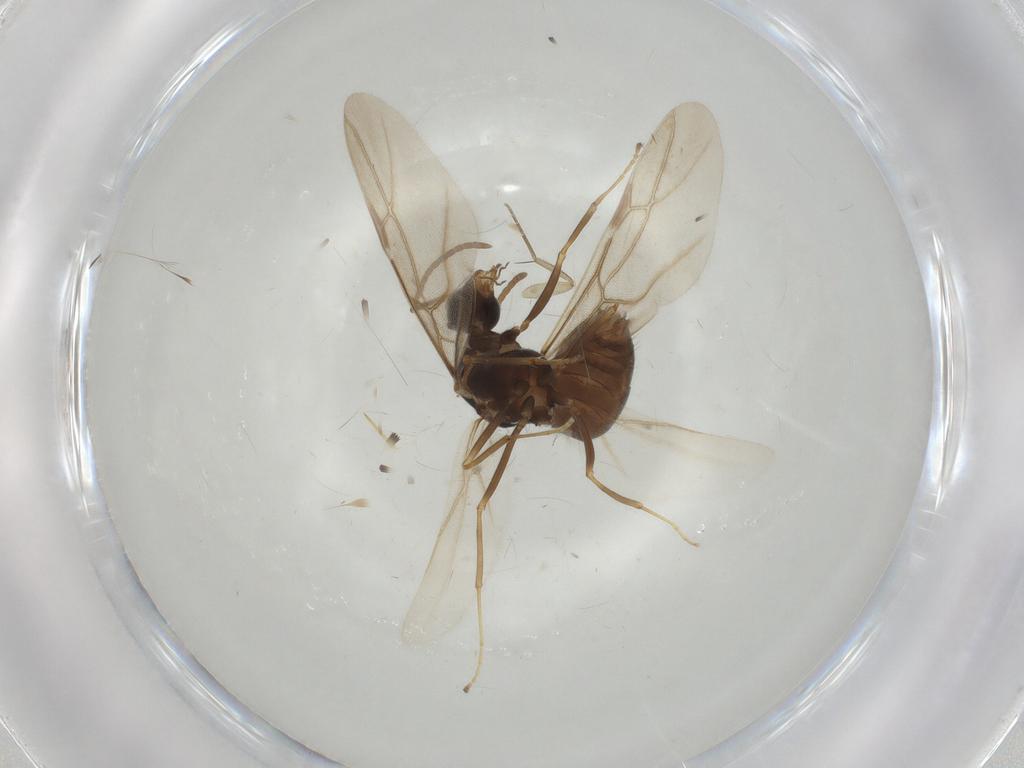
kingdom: Animalia
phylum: Arthropoda
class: Insecta
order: Hymenoptera
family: Formicidae
